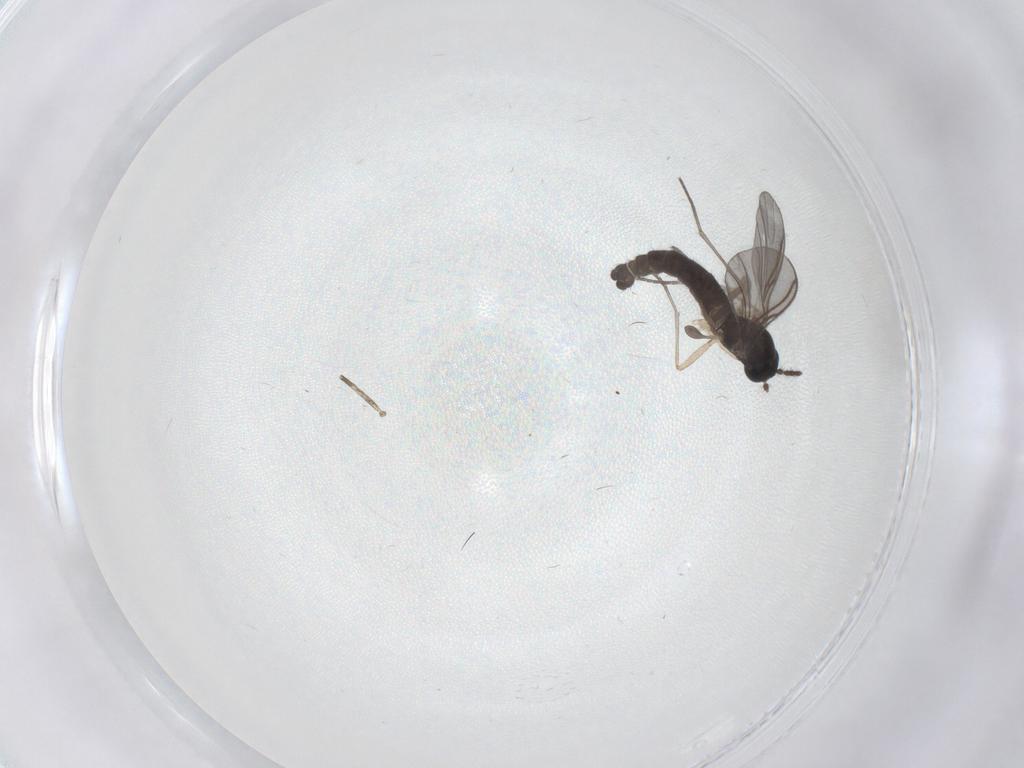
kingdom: Animalia
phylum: Arthropoda
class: Insecta
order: Diptera
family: Sciaridae
